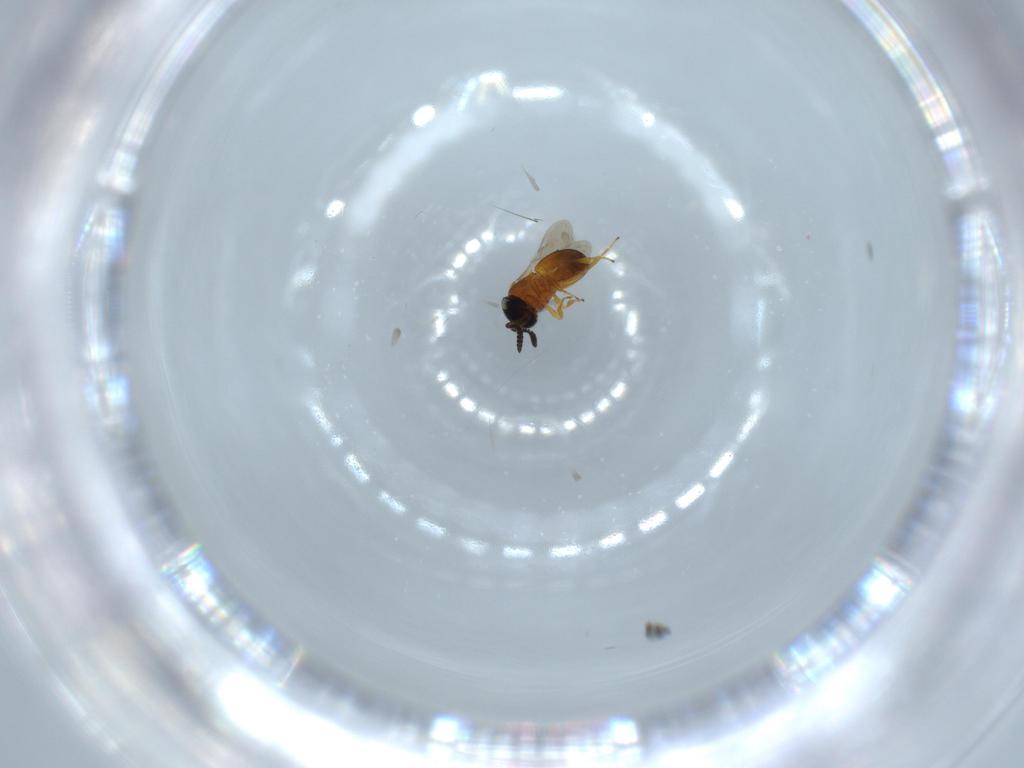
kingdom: Animalia
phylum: Arthropoda
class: Insecta
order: Hymenoptera
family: Scelionidae
